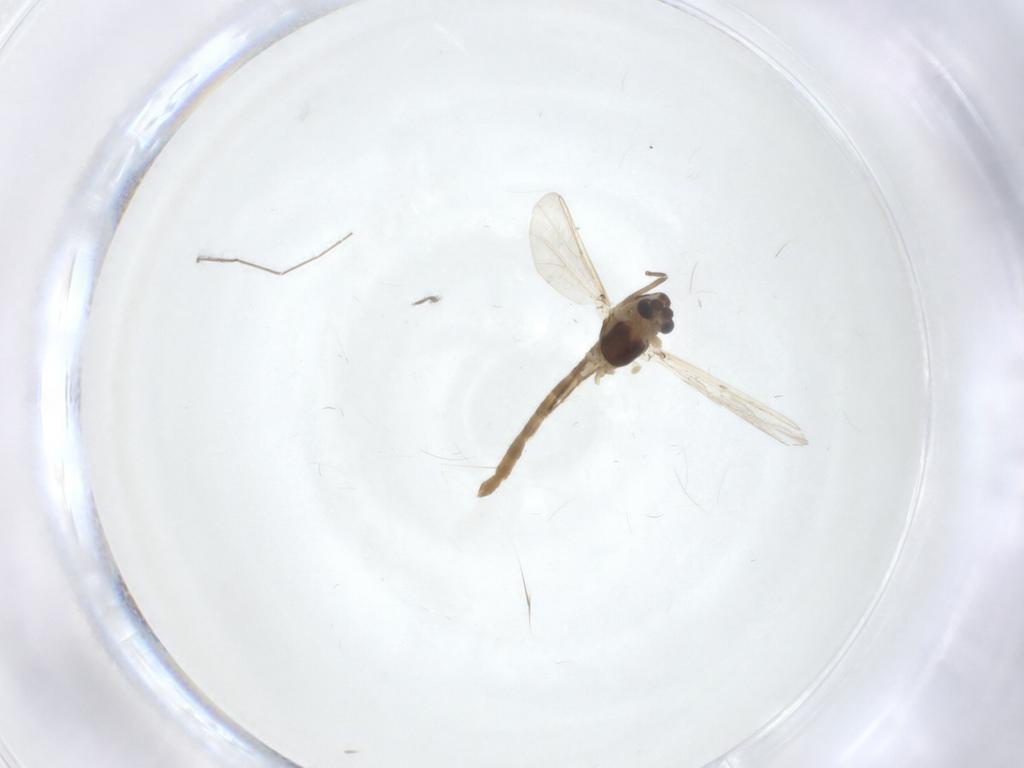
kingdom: Animalia
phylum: Arthropoda
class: Insecta
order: Diptera
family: Chironomidae
